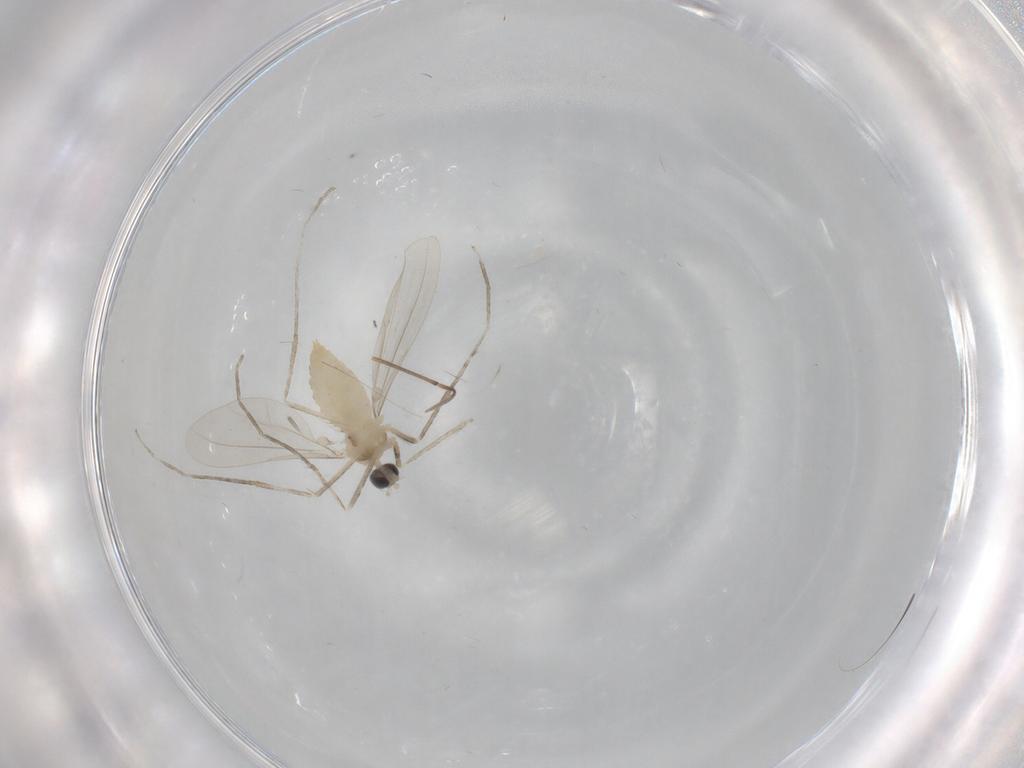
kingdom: Animalia
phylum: Arthropoda
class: Insecta
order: Diptera
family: Cecidomyiidae
